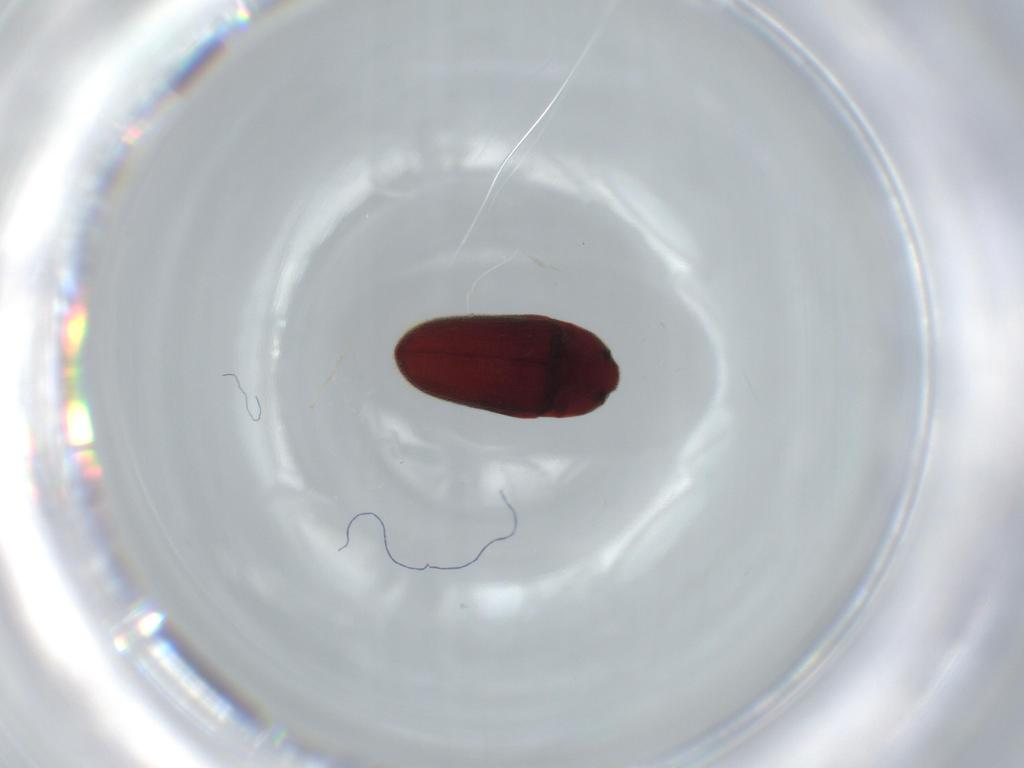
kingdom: Animalia
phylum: Arthropoda
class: Insecta
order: Coleoptera
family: Throscidae
